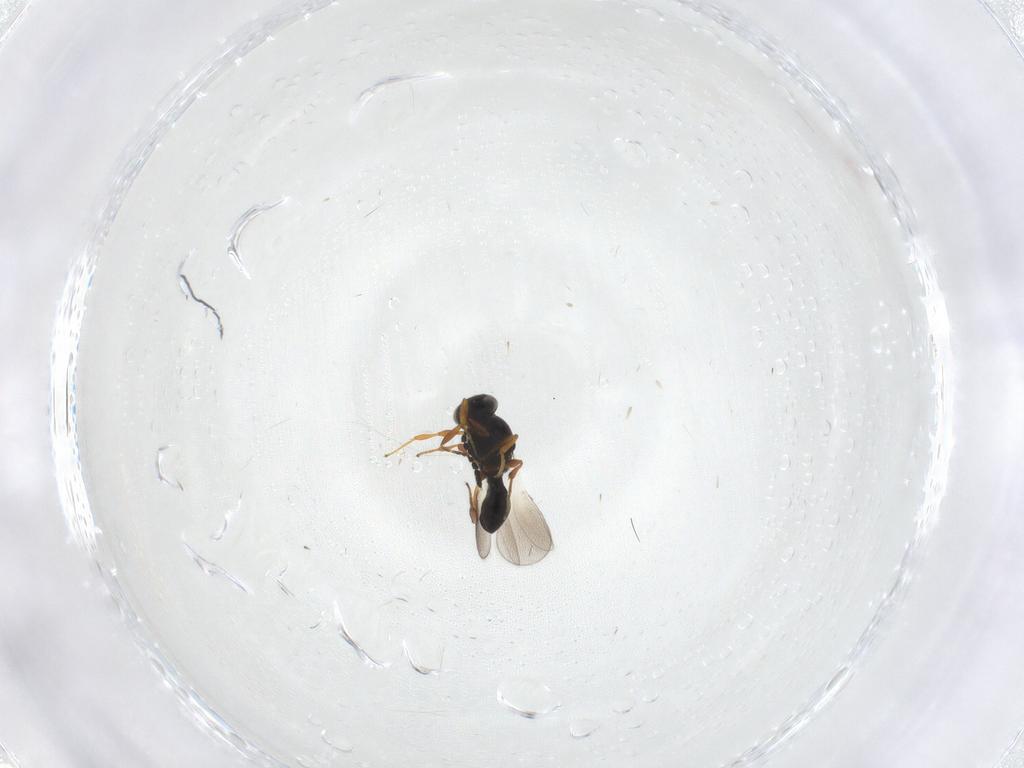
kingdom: Animalia
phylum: Arthropoda
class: Insecta
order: Hymenoptera
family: Platygastridae
